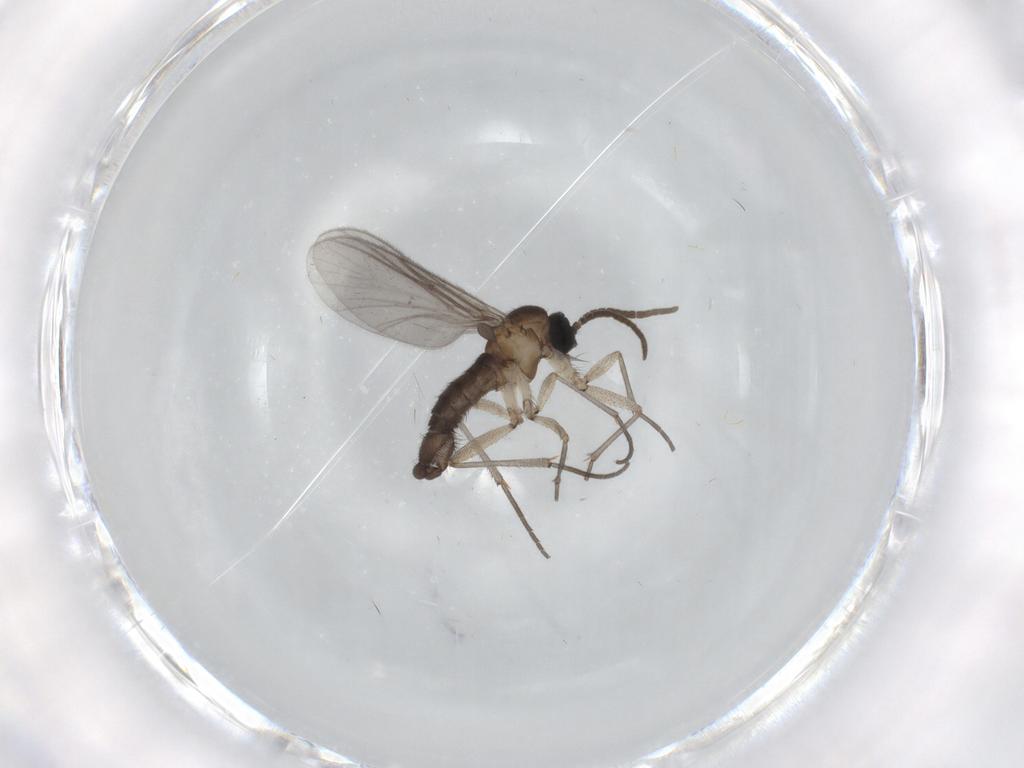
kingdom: Animalia
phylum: Arthropoda
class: Insecta
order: Diptera
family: Sciaridae
